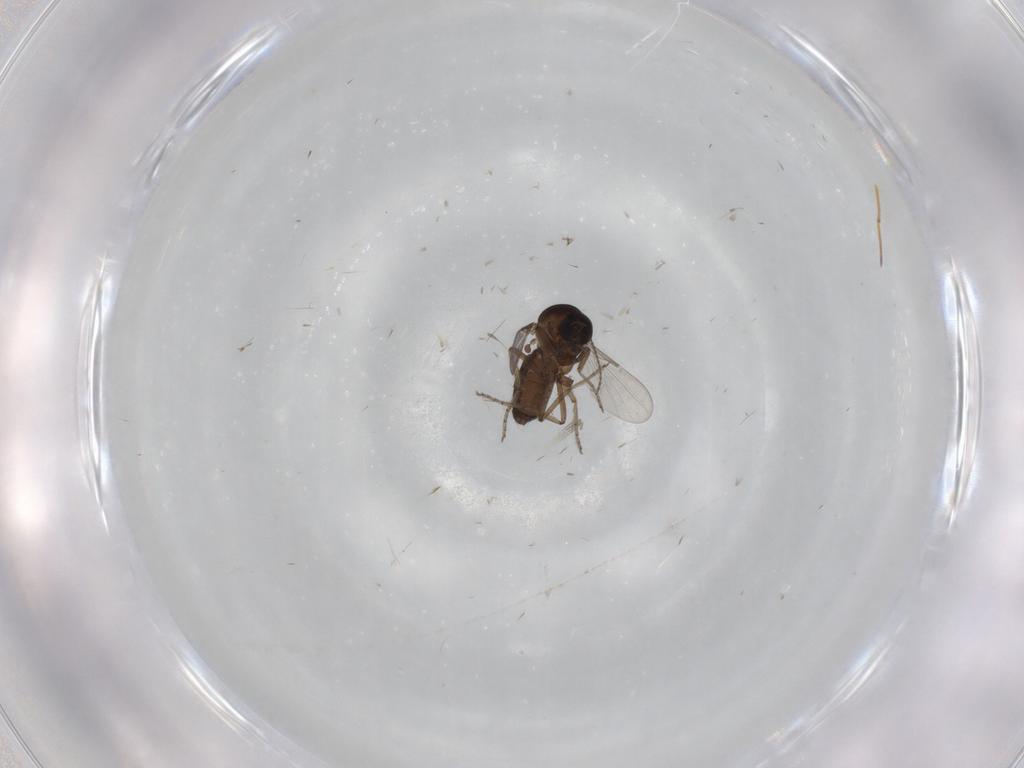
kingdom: Animalia
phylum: Arthropoda
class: Insecta
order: Diptera
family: Ceratopogonidae
